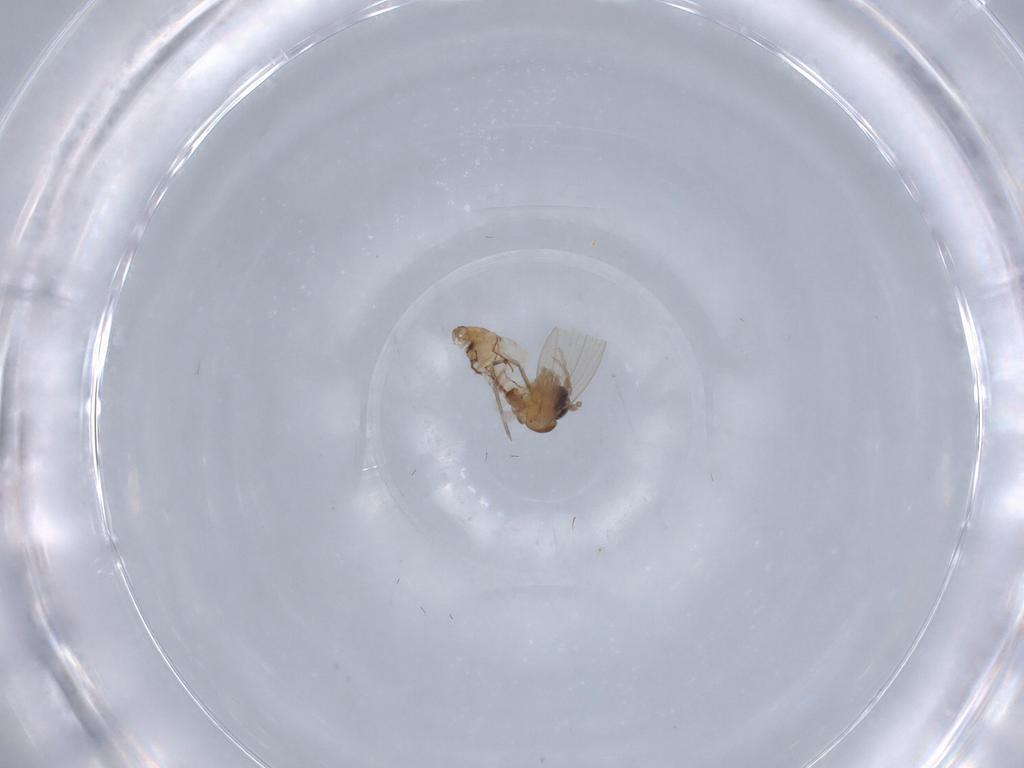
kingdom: Animalia
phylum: Arthropoda
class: Insecta
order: Diptera
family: Psychodidae
